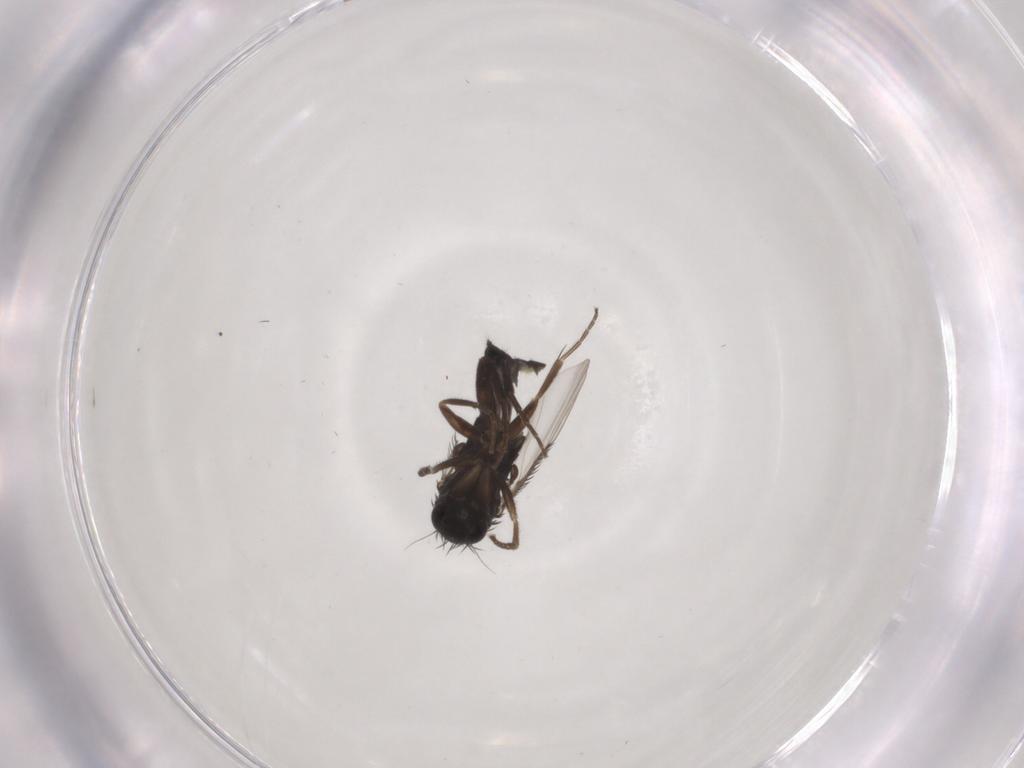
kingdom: Animalia
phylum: Arthropoda
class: Insecta
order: Diptera
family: Phoridae
